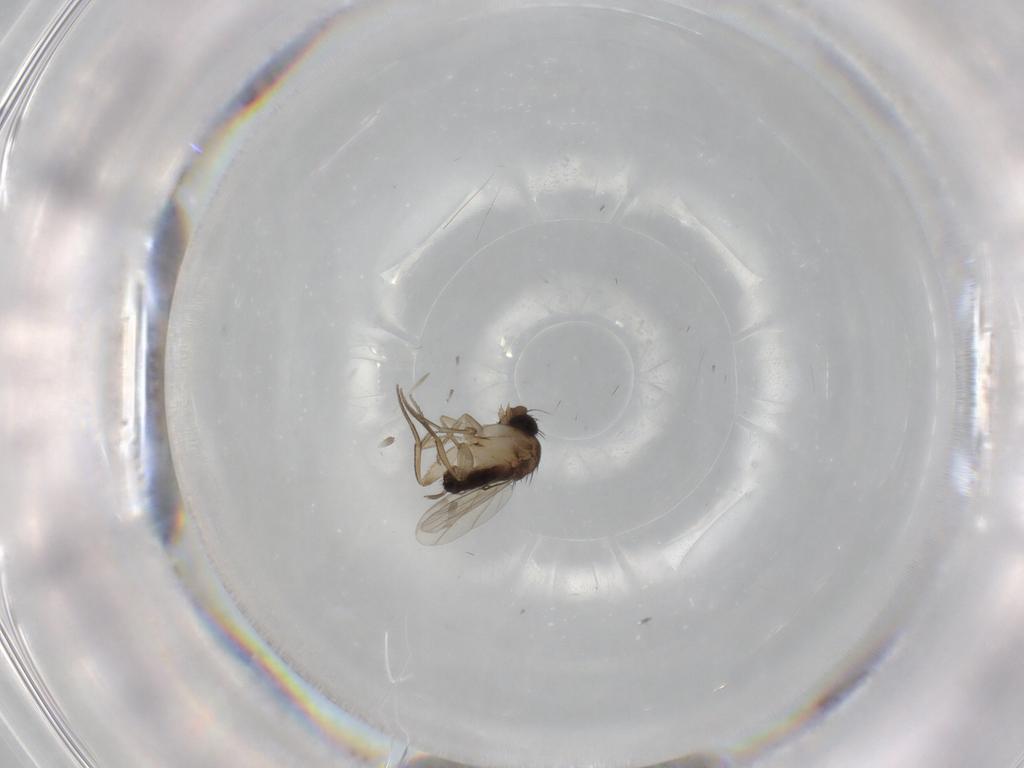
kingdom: Animalia
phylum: Arthropoda
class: Insecta
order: Diptera
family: Phoridae
